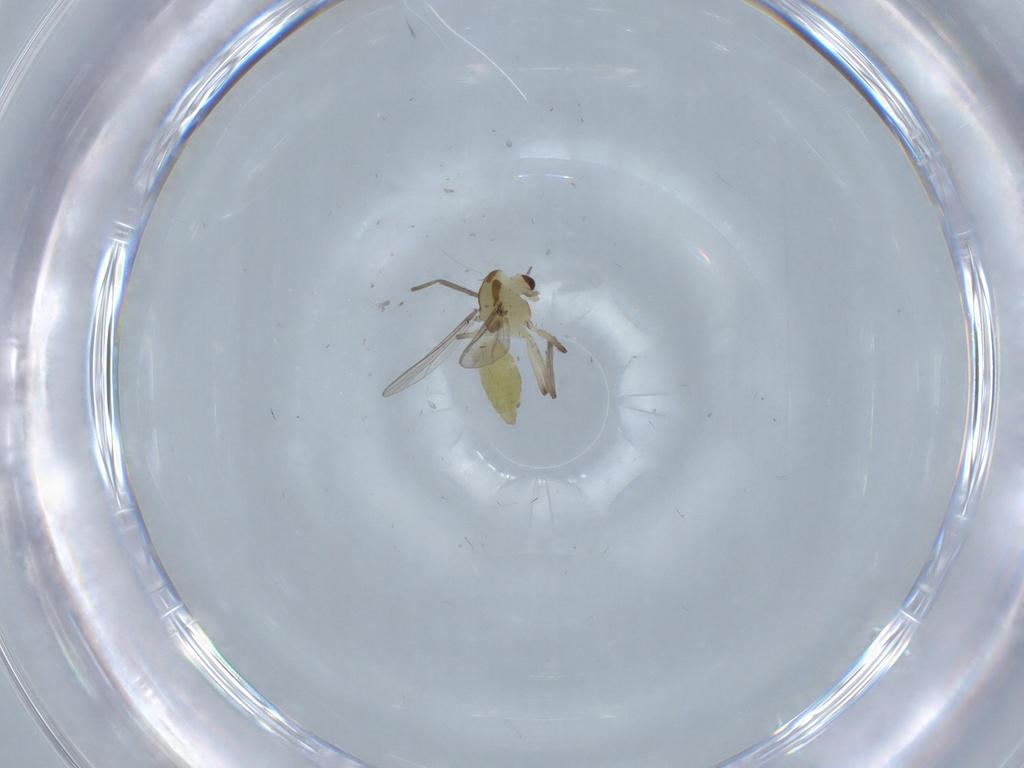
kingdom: Animalia
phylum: Arthropoda
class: Insecta
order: Diptera
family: Chironomidae
